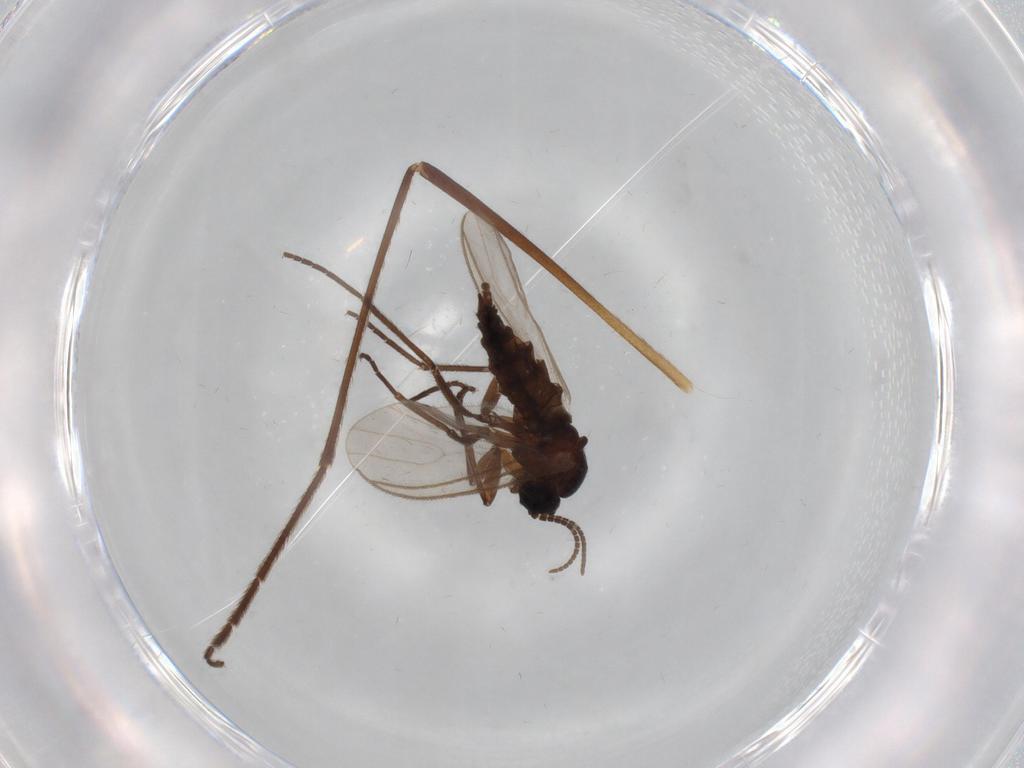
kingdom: Animalia
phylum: Arthropoda
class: Insecta
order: Diptera
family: Sciaridae
